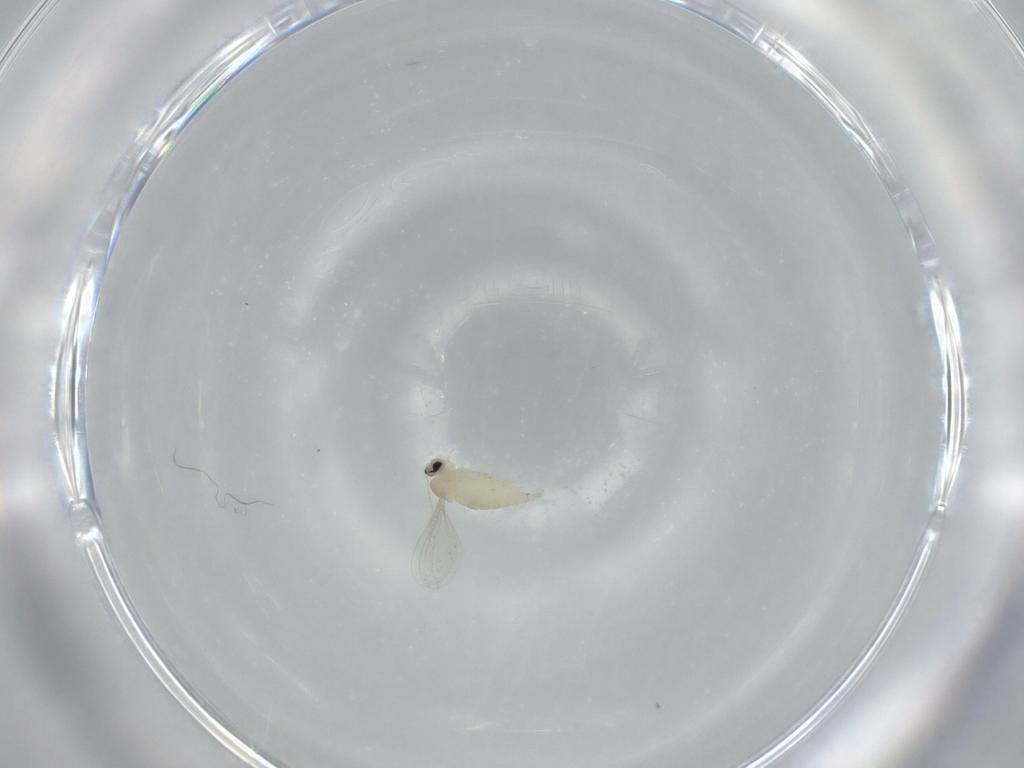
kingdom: Animalia
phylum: Arthropoda
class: Insecta
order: Diptera
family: Cecidomyiidae
